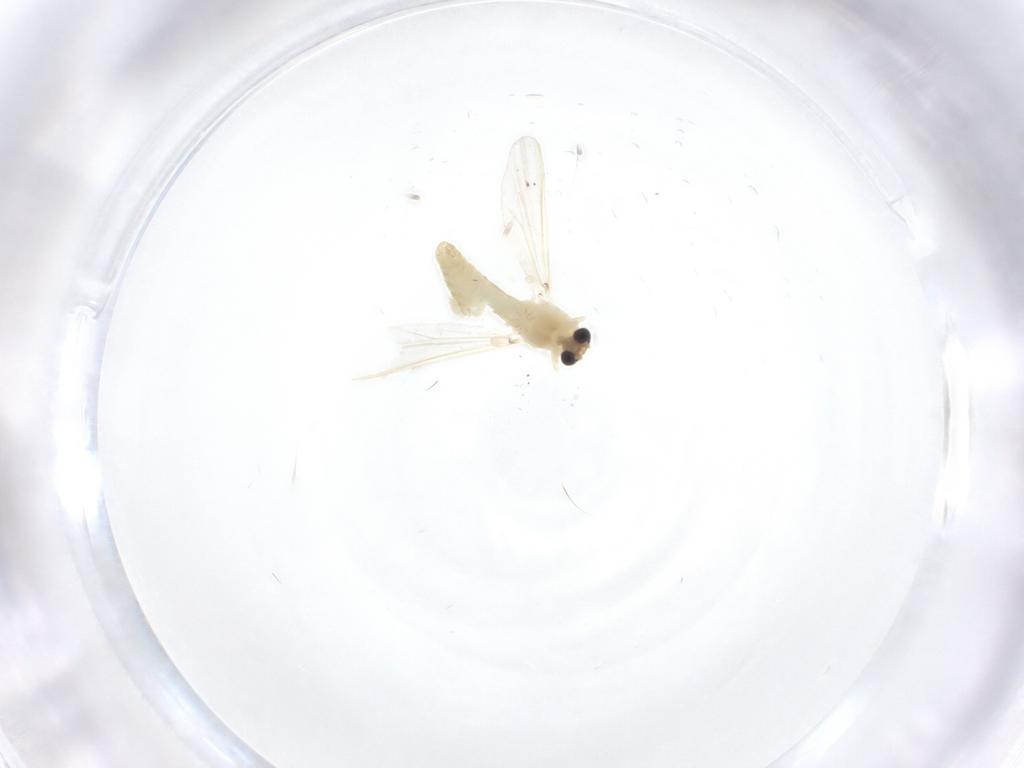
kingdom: Animalia
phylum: Arthropoda
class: Insecta
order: Diptera
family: Chironomidae
